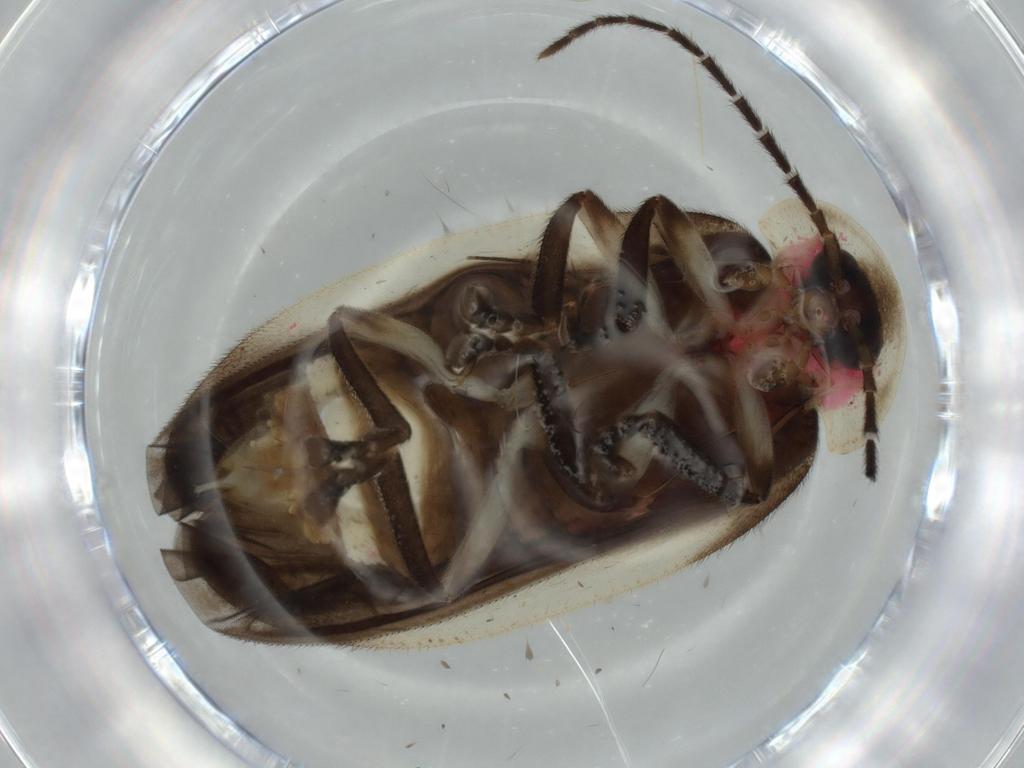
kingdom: Animalia
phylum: Arthropoda
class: Insecta
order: Coleoptera
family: Lampyridae
